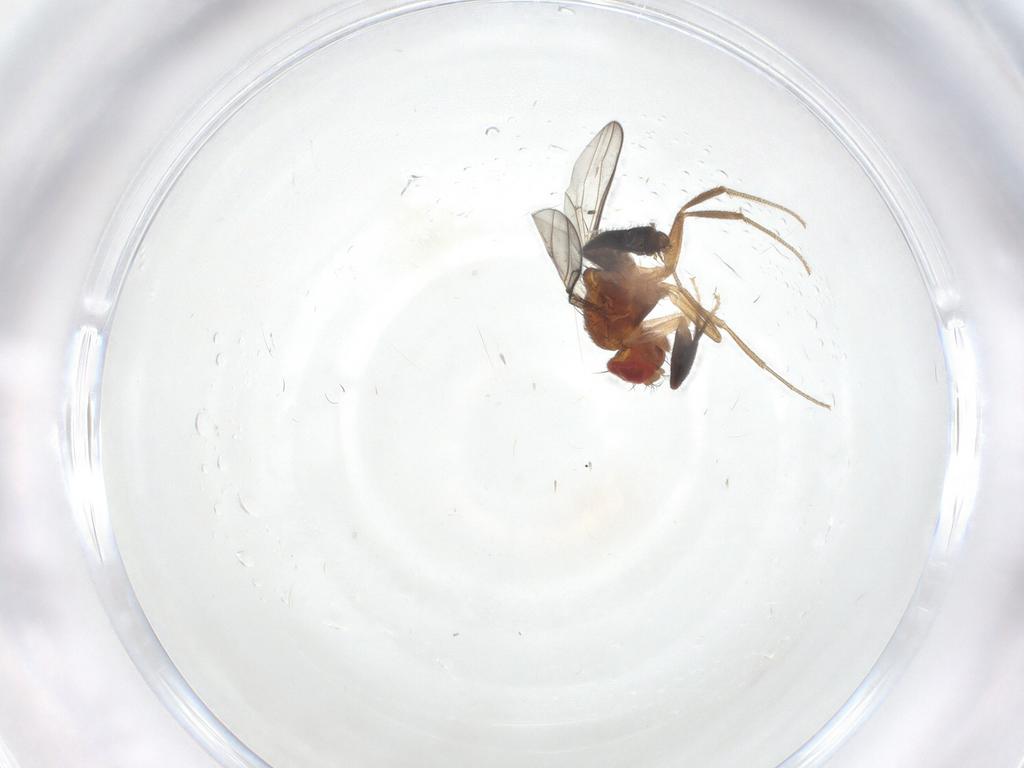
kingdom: Animalia
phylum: Arthropoda
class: Insecta
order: Diptera
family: Drosophilidae
